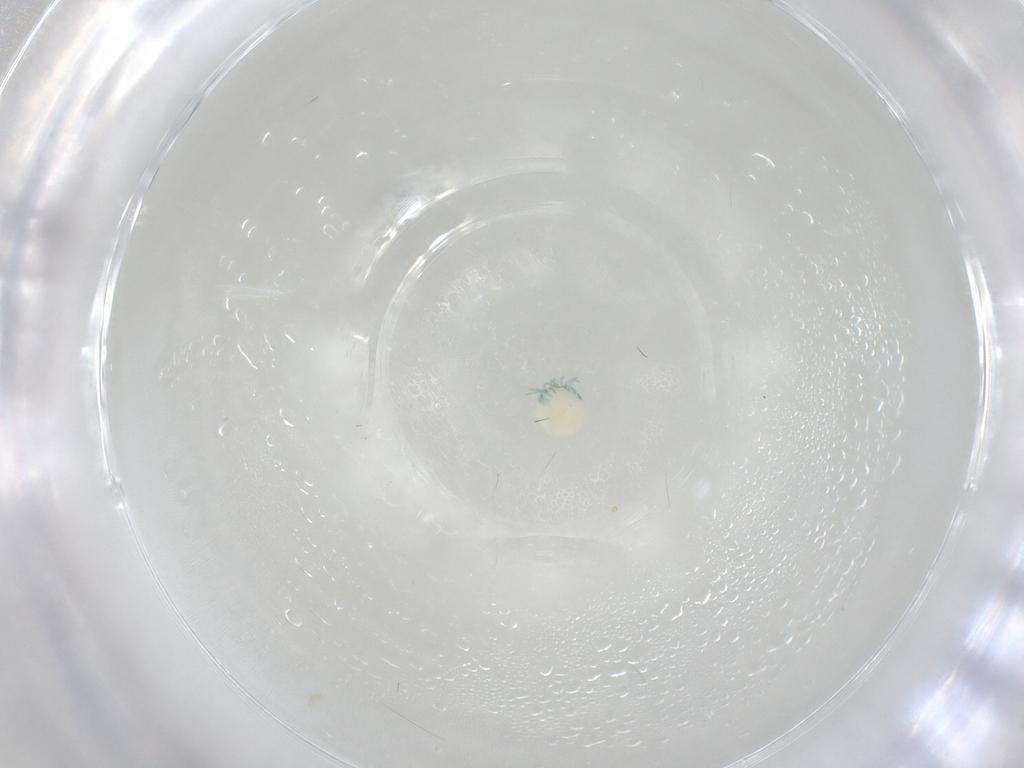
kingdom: Animalia
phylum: Arthropoda
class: Arachnida
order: Trombidiformes
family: Arrenuridae
